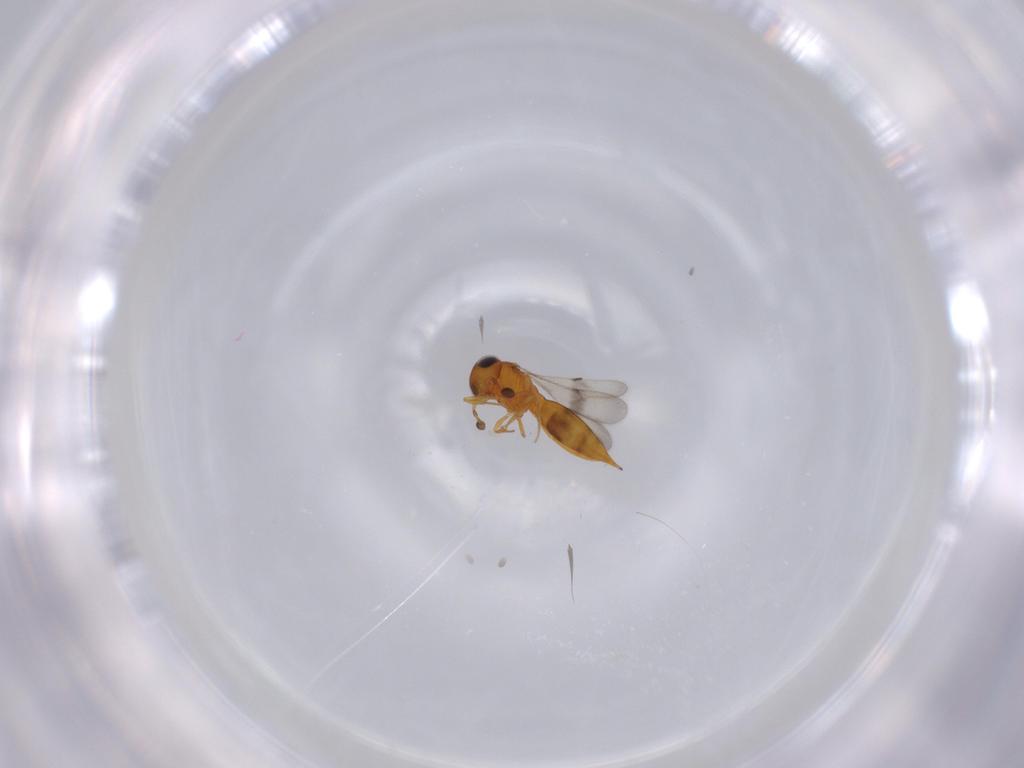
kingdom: Animalia
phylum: Arthropoda
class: Insecta
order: Hymenoptera
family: Scelionidae
